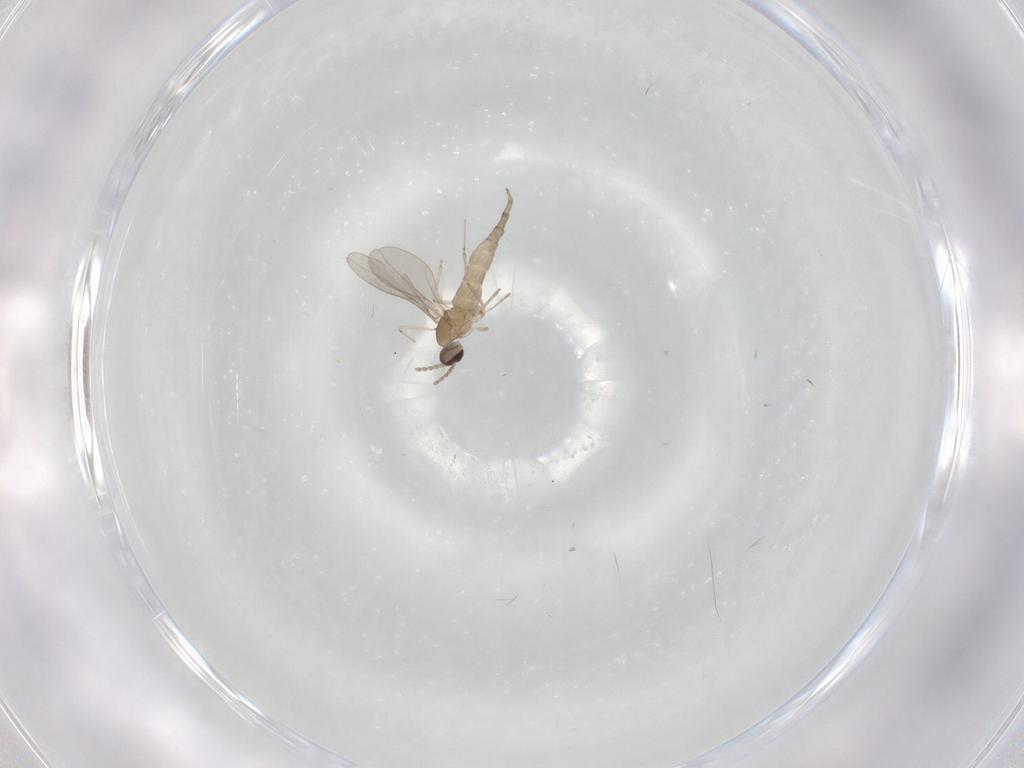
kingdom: Animalia
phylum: Arthropoda
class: Insecta
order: Diptera
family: Cecidomyiidae
